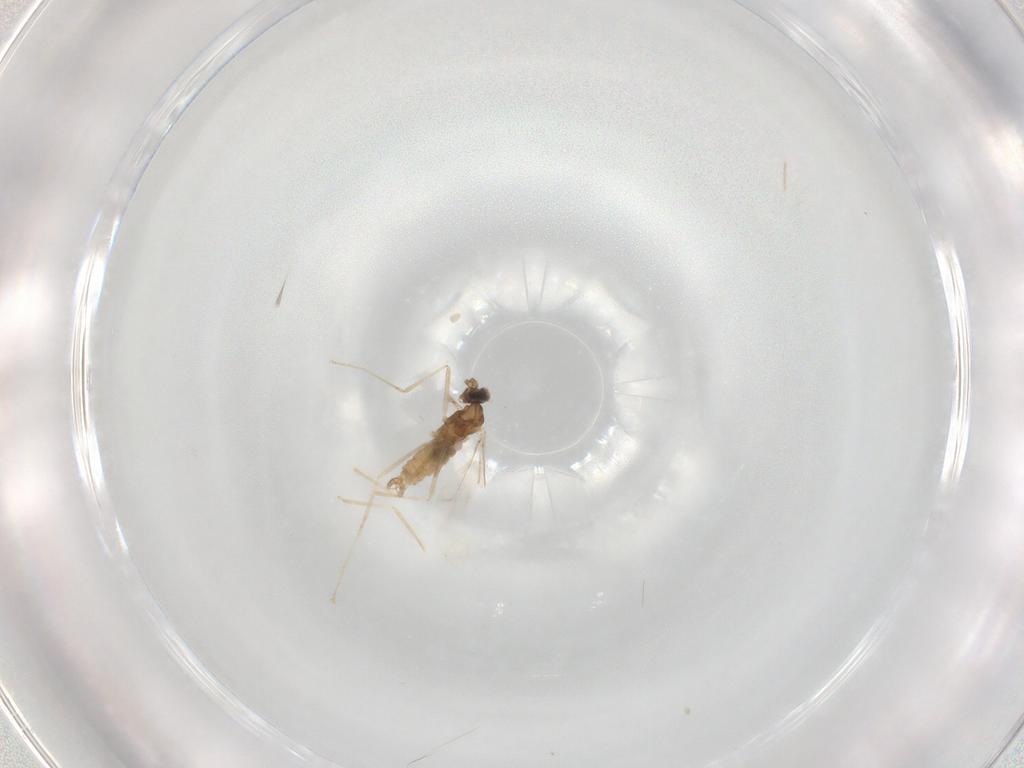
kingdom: Animalia
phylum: Arthropoda
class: Insecta
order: Diptera
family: Cecidomyiidae
